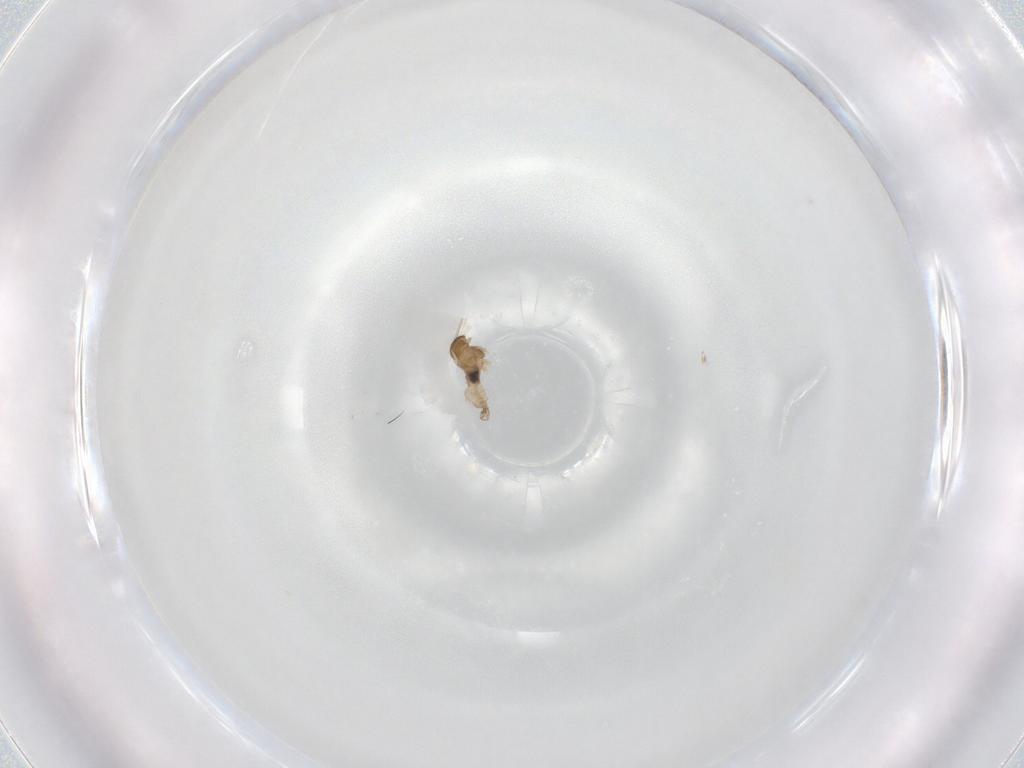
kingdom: Animalia
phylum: Arthropoda
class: Insecta
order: Diptera
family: Cecidomyiidae
